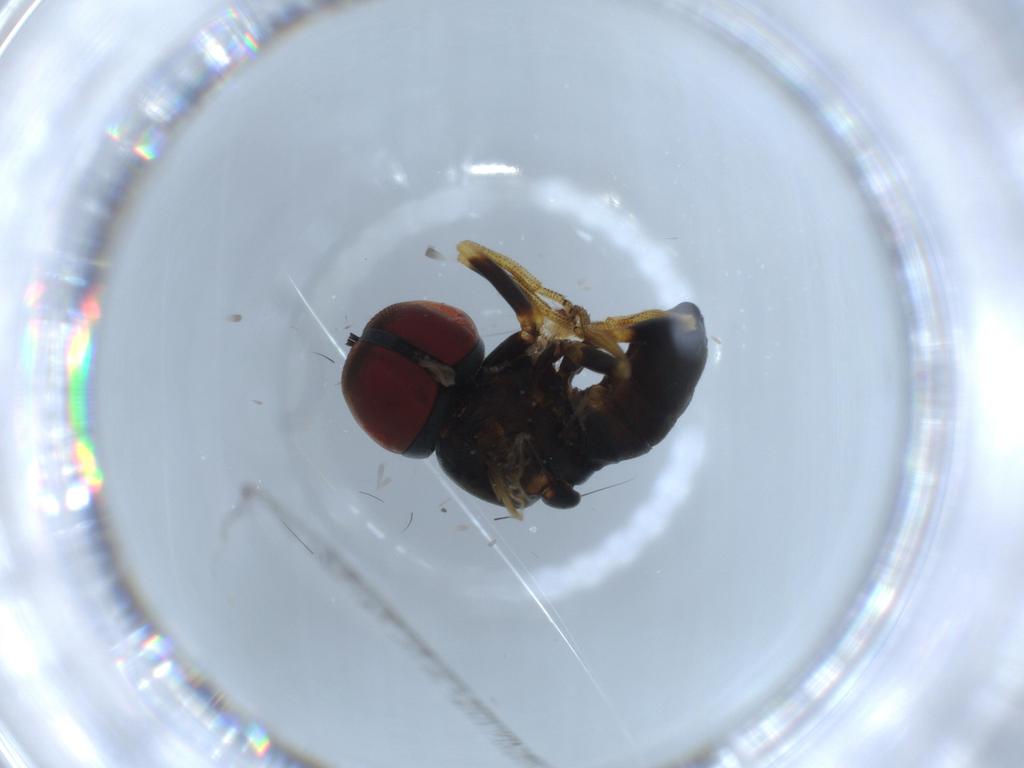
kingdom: Animalia
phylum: Arthropoda
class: Insecta
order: Diptera
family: Pipunculidae
